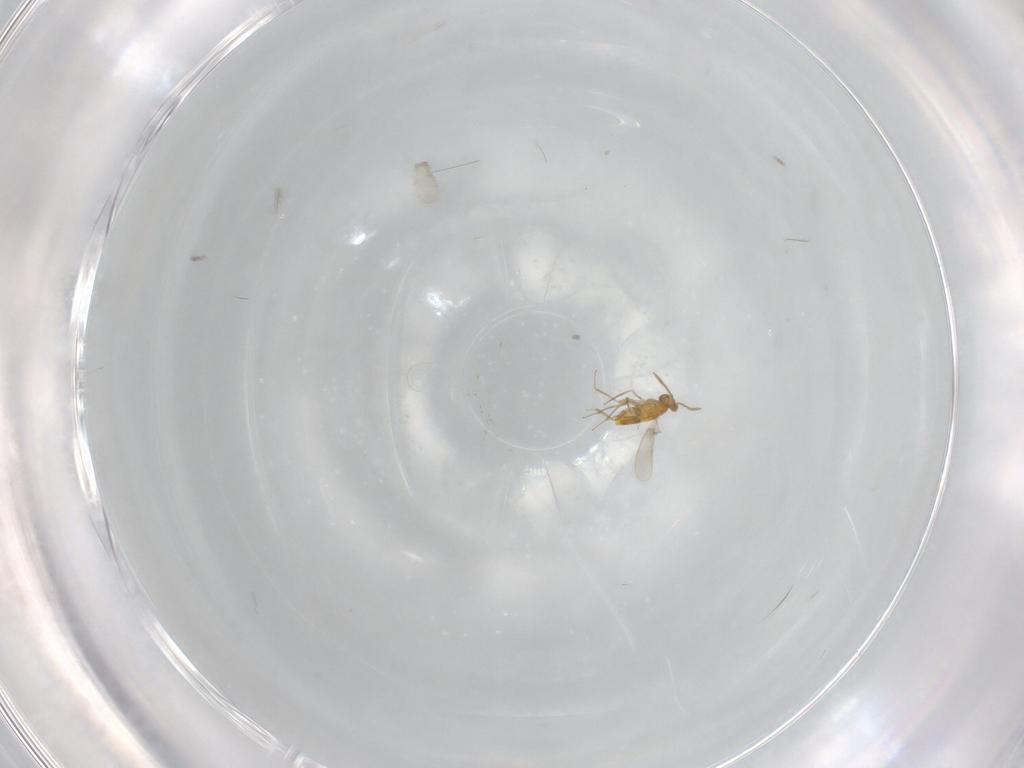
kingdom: Animalia
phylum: Arthropoda
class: Insecta
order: Hymenoptera
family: Aphelinidae
